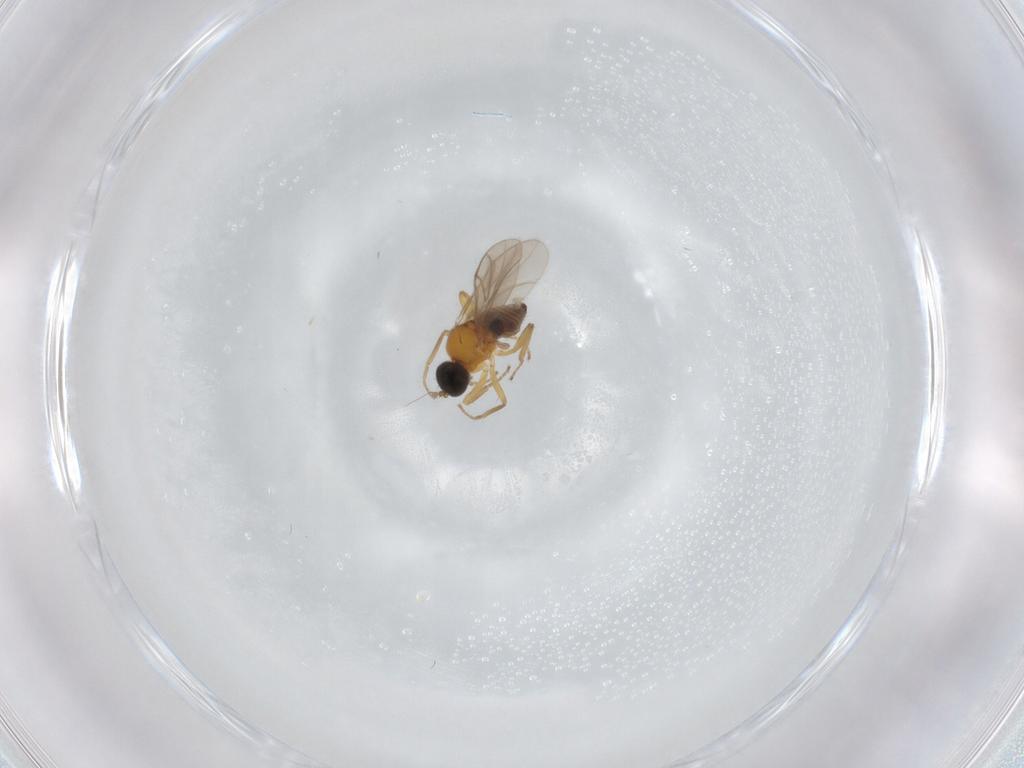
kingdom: Animalia
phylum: Arthropoda
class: Insecta
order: Diptera
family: Hybotidae
